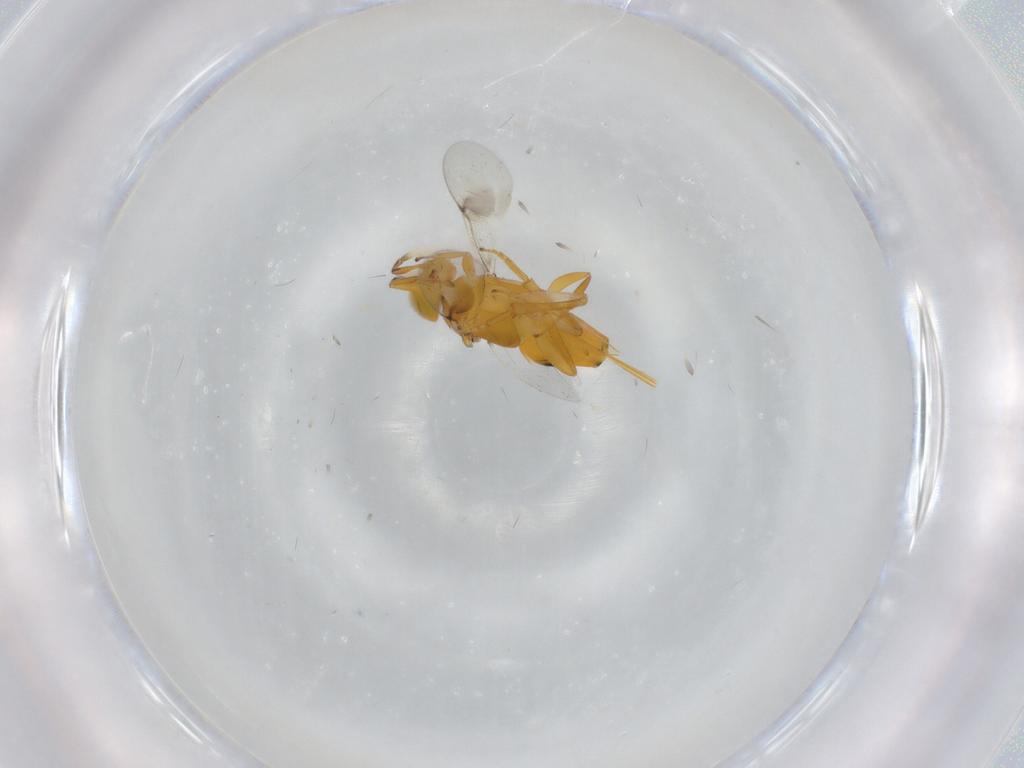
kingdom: Animalia
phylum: Arthropoda
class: Insecta
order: Hymenoptera
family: Encyrtidae
